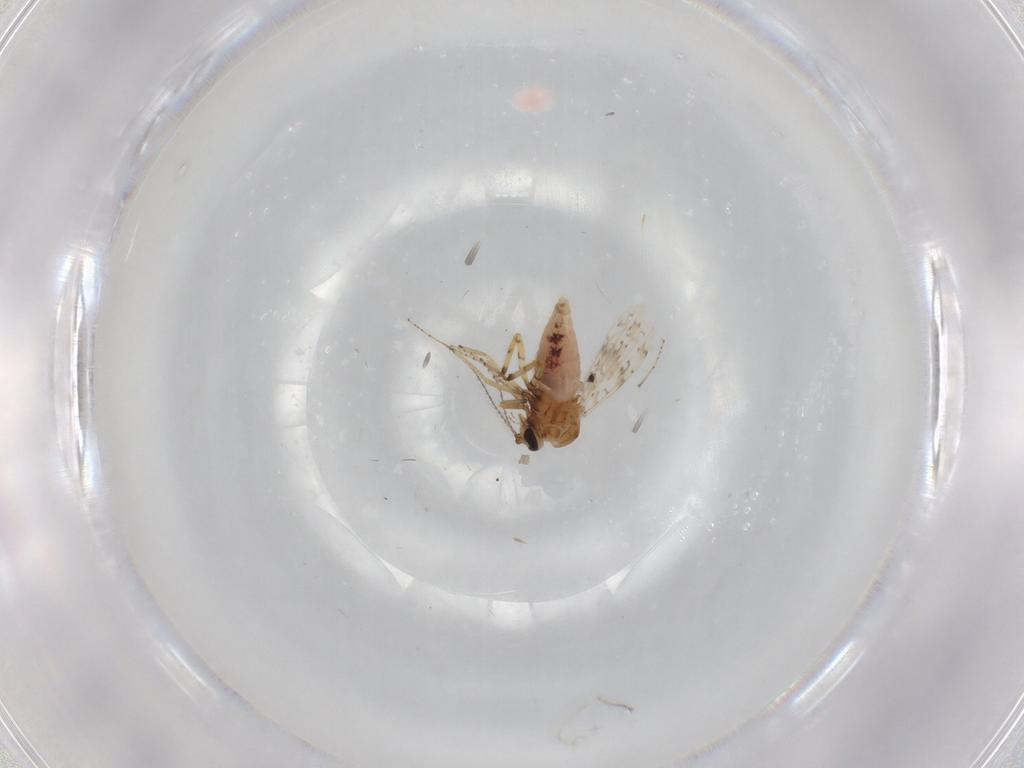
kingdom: Animalia
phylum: Arthropoda
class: Insecta
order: Diptera
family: Ceratopogonidae
